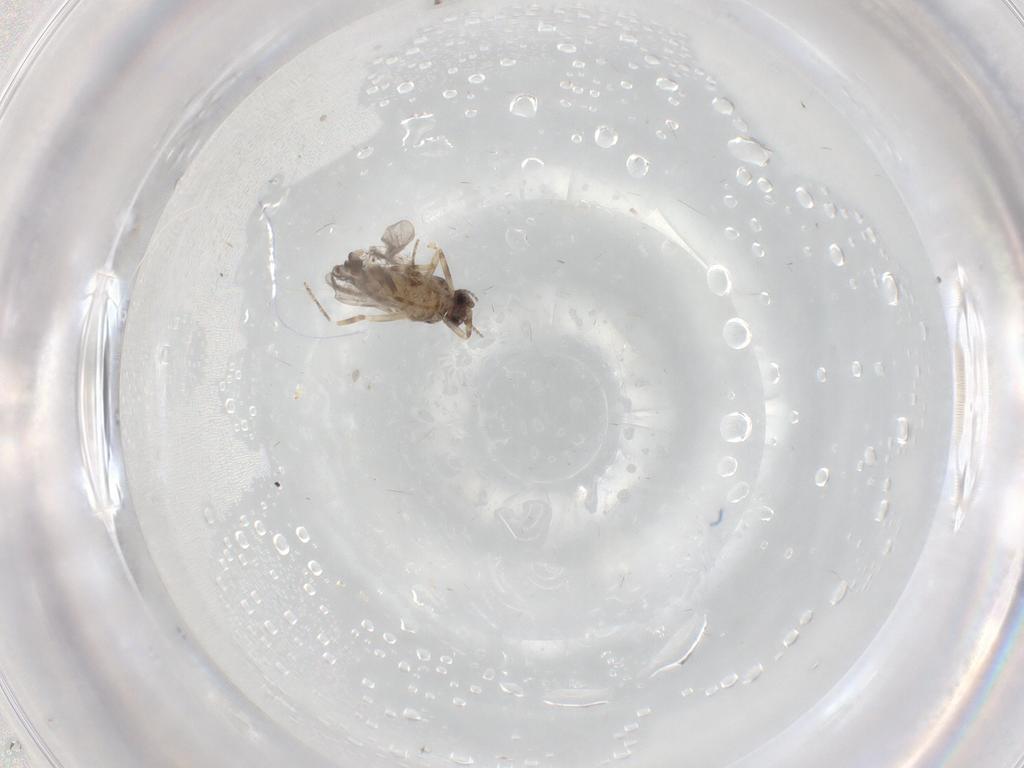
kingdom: Animalia
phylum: Arthropoda
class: Insecta
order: Diptera
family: Ceratopogonidae
